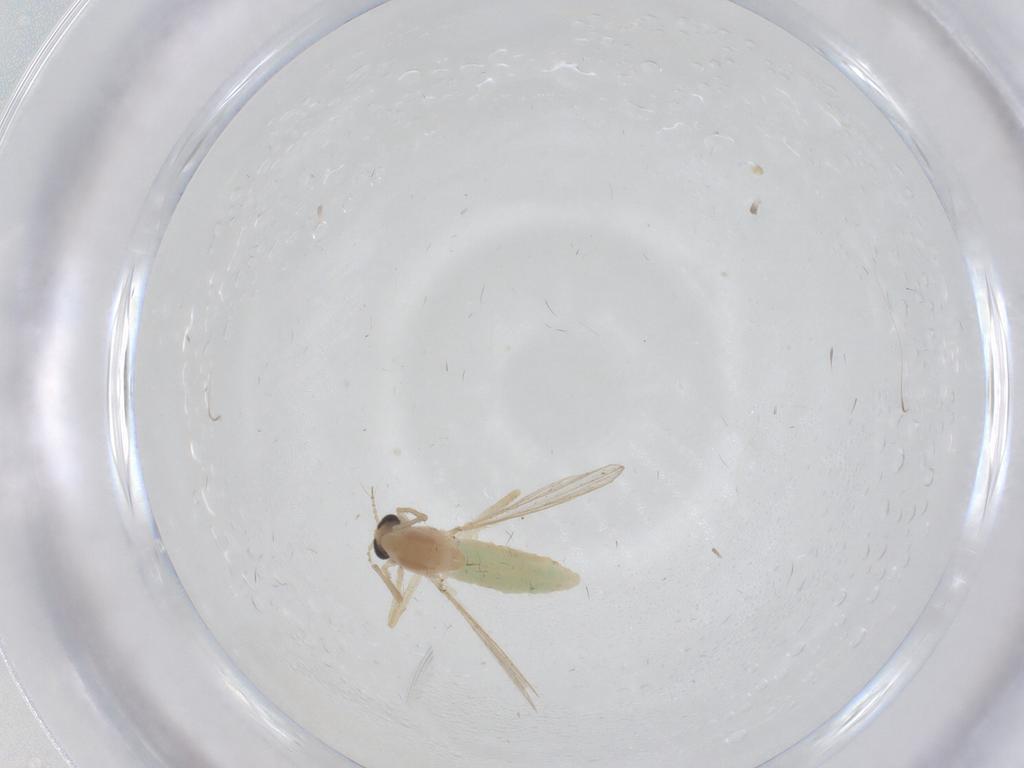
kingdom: Animalia
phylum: Arthropoda
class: Insecta
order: Diptera
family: Chironomidae
